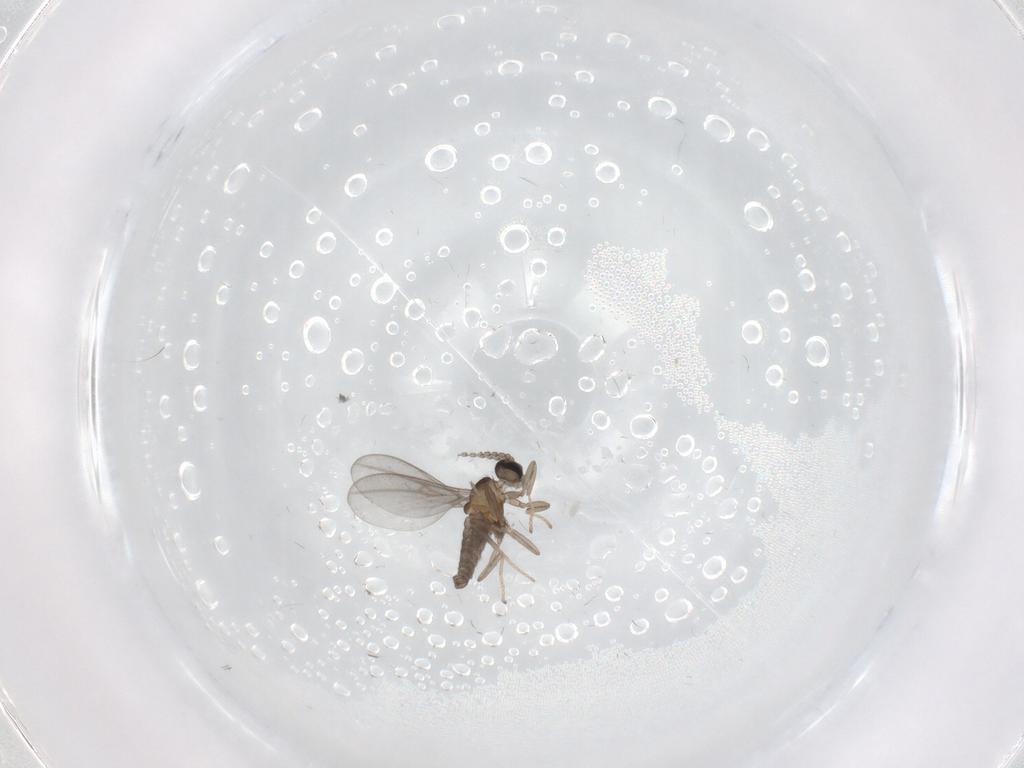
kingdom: Animalia
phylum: Arthropoda
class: Insecta
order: Diptera
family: Cecidomyiidae
